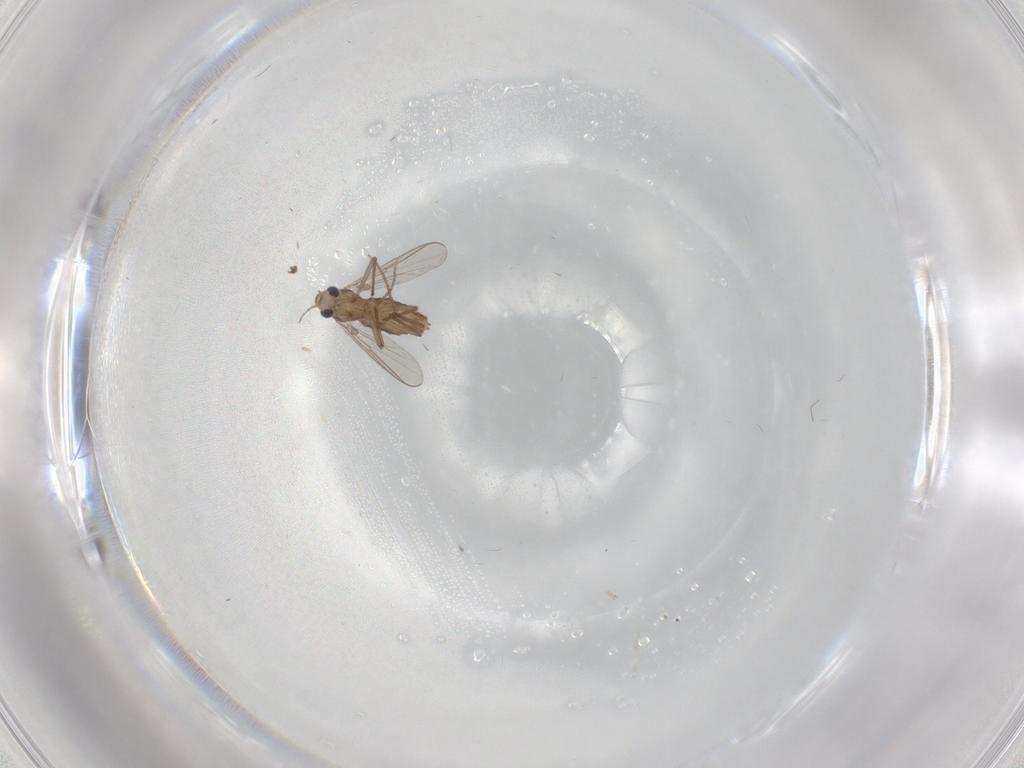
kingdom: Animalia
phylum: Arthropoda
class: Insecta
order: Diptera
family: Chironomidae
